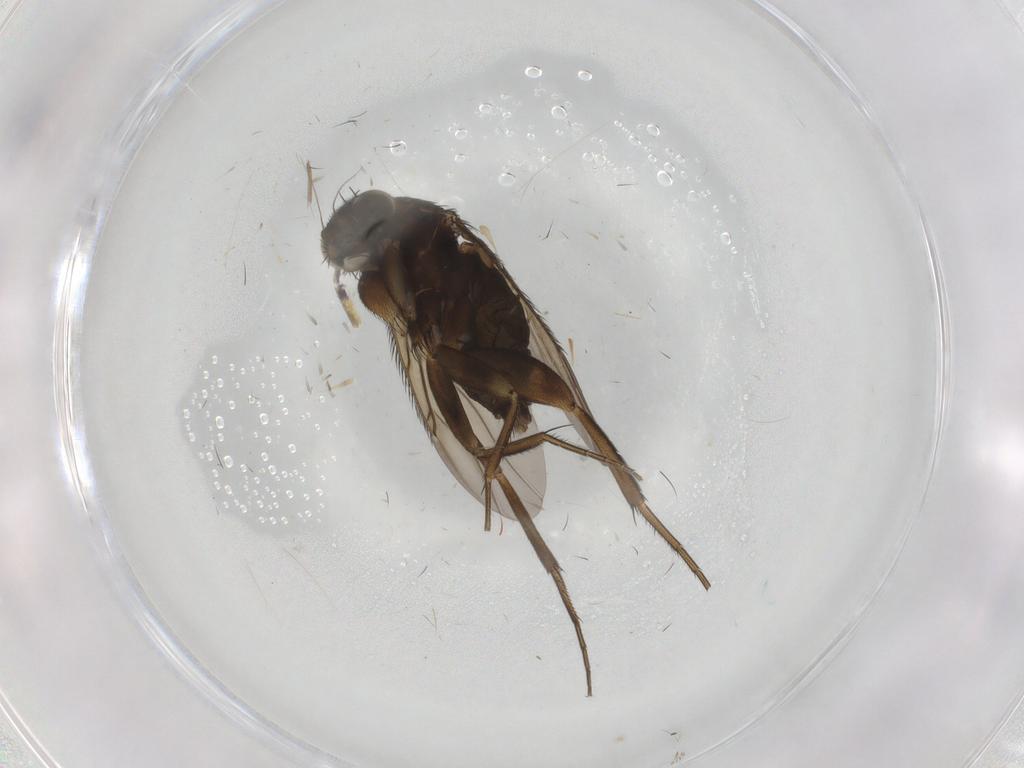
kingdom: Animalia
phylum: Arthropoda
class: Insecta
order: Diptera
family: Phoridae
